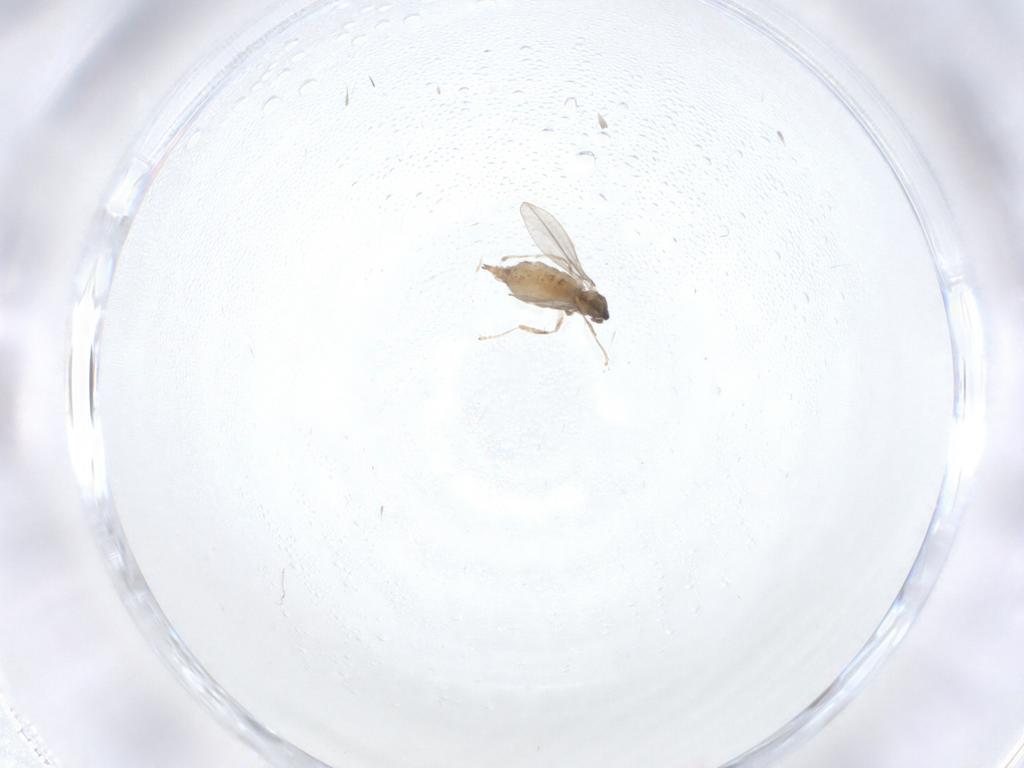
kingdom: Animalia
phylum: Arthropoda
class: Insecta
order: Diptera
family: Cecidomyiidae
